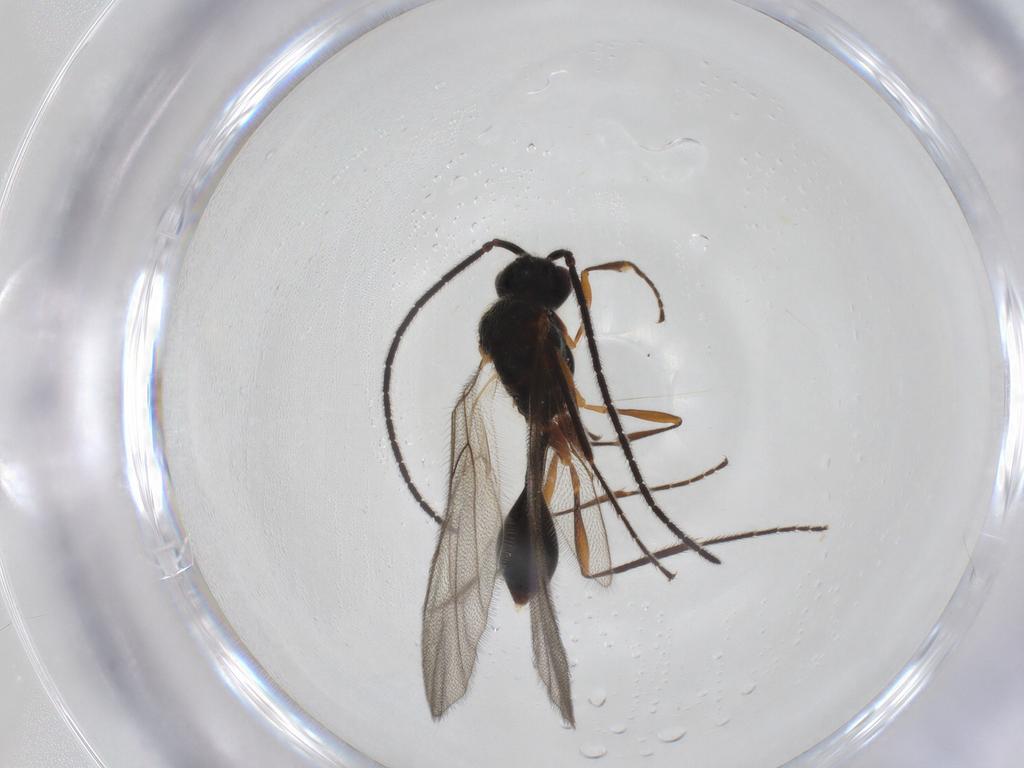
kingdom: Animalia
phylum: Arthropoda
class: Insecta
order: Hymenoptera
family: Diapriidae
